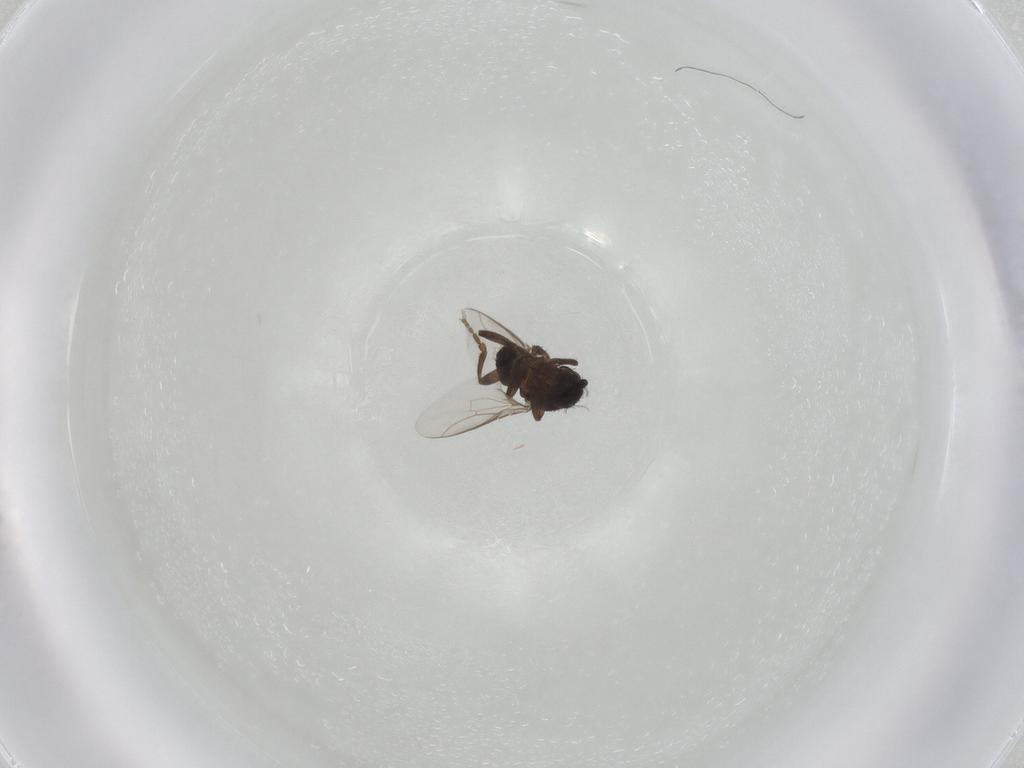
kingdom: Animalia
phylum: Arthropoda
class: Insecta
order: Diptera
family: Sphaeroceridae
